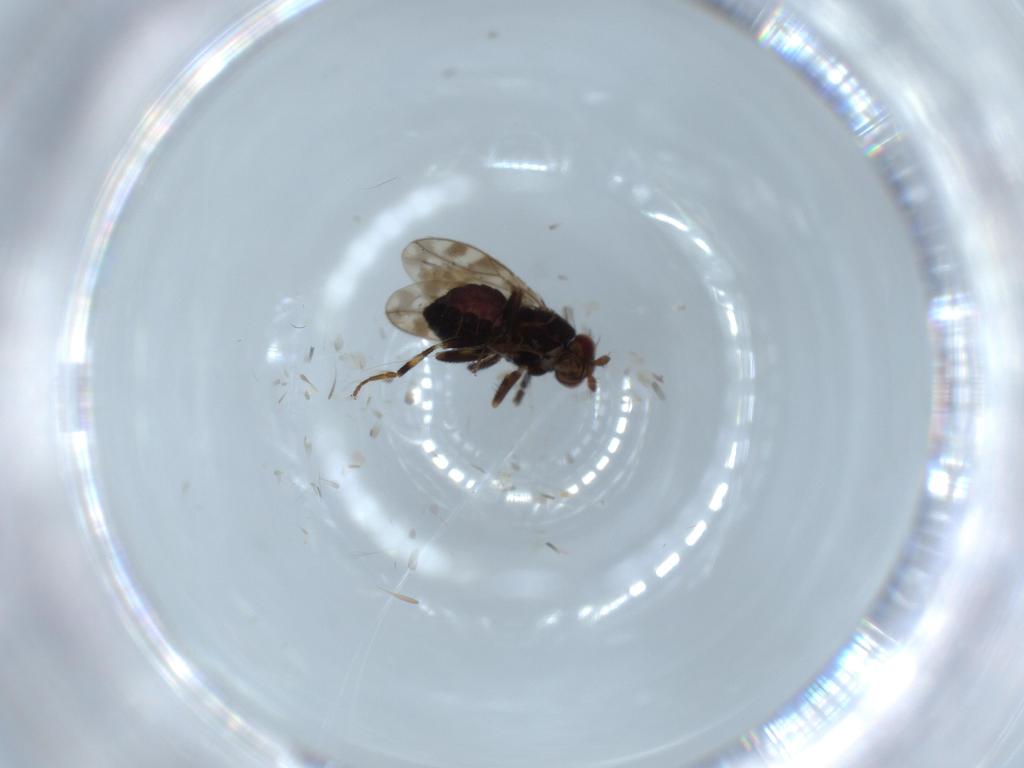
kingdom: Animalia
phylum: Arthropoda
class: Insecta
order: Diptera
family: Sphaeroceridae
